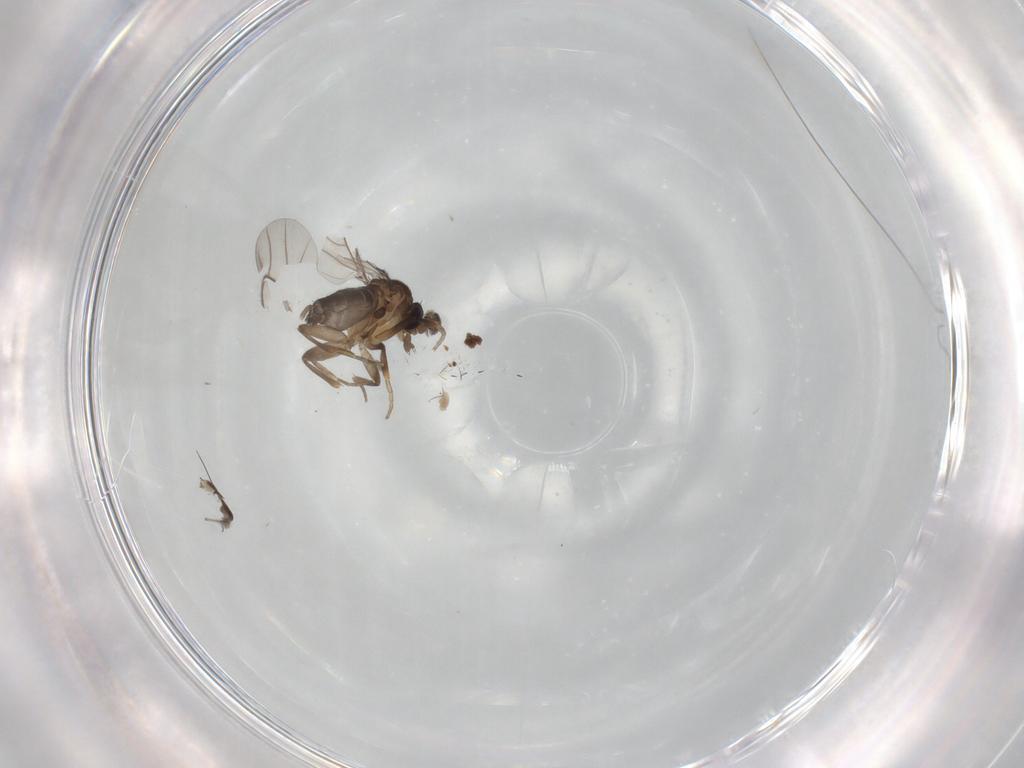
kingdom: Animalia
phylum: Arthropoda
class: Insecta
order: Diptera
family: Phoridae
